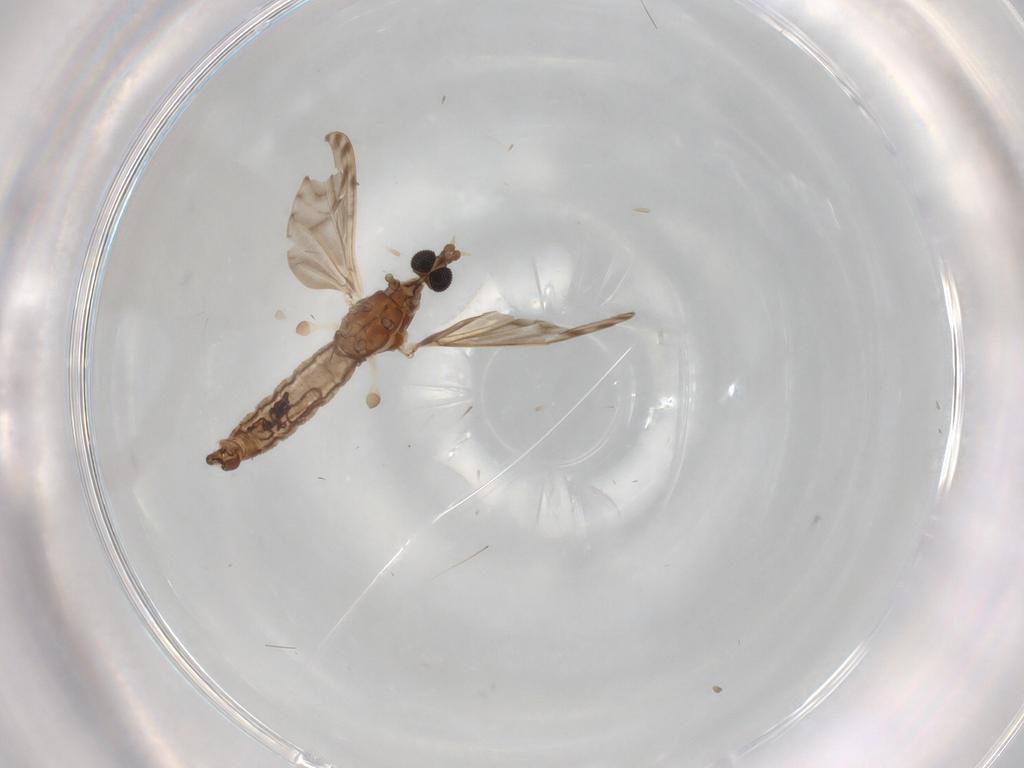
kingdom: Animalia
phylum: Arthropoda
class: Insecta
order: Diptera
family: Limoniidae
